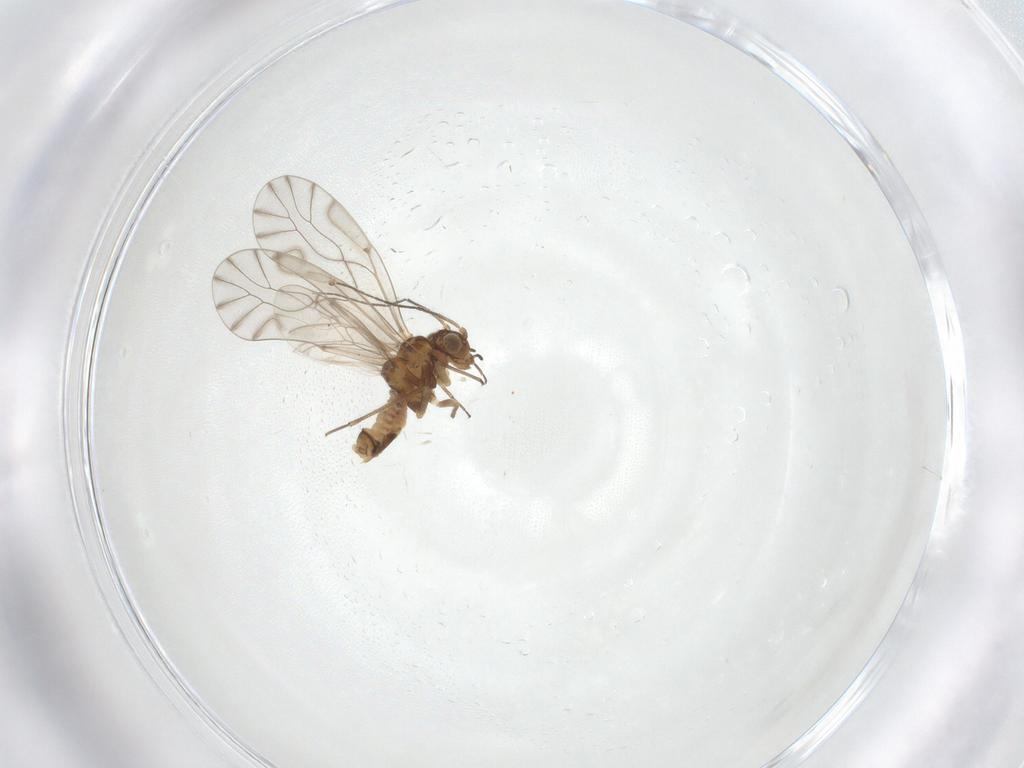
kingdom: Animalia
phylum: Arthropoda
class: Insecta
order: Psocodea
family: Lachesillidae
